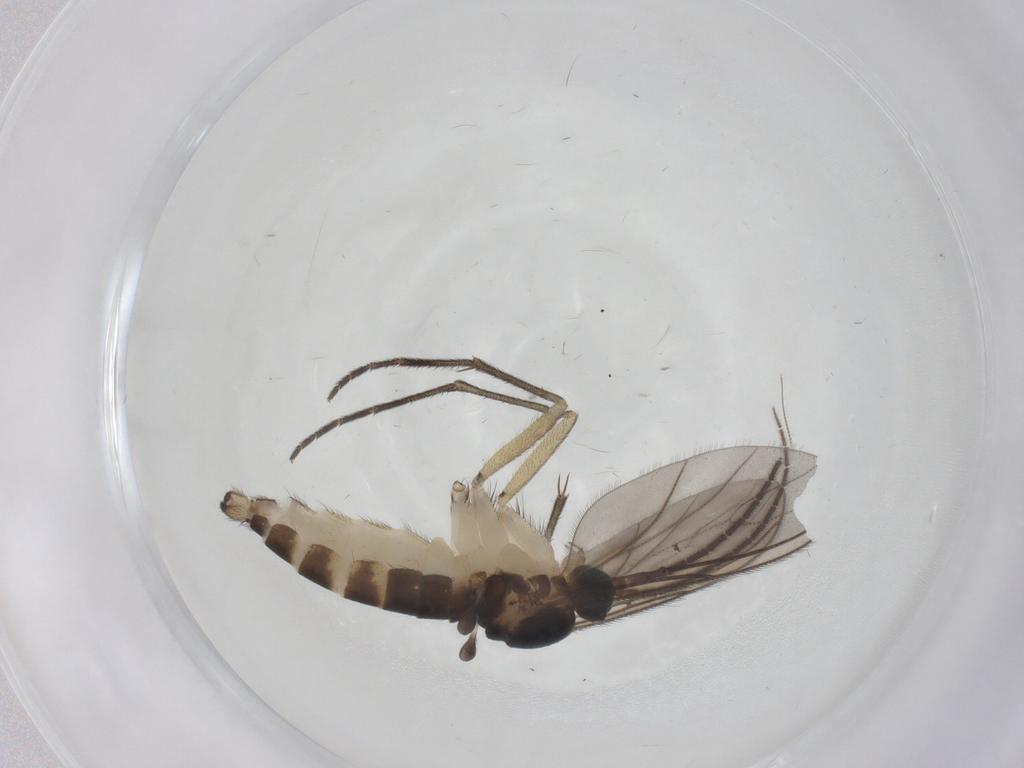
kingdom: Animalia
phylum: Arthropoda
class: Insecta
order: Diptera
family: Sciaridae
